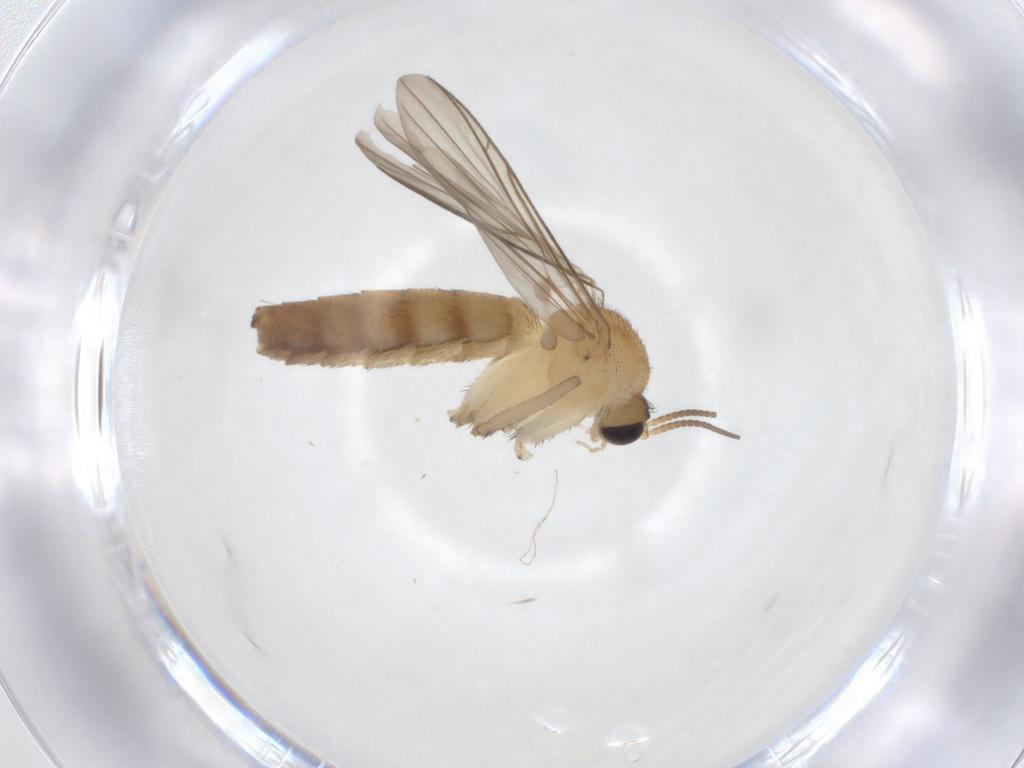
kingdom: Animalia
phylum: Arthropoda
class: Insecta
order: Diptera
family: Keroplatidae
